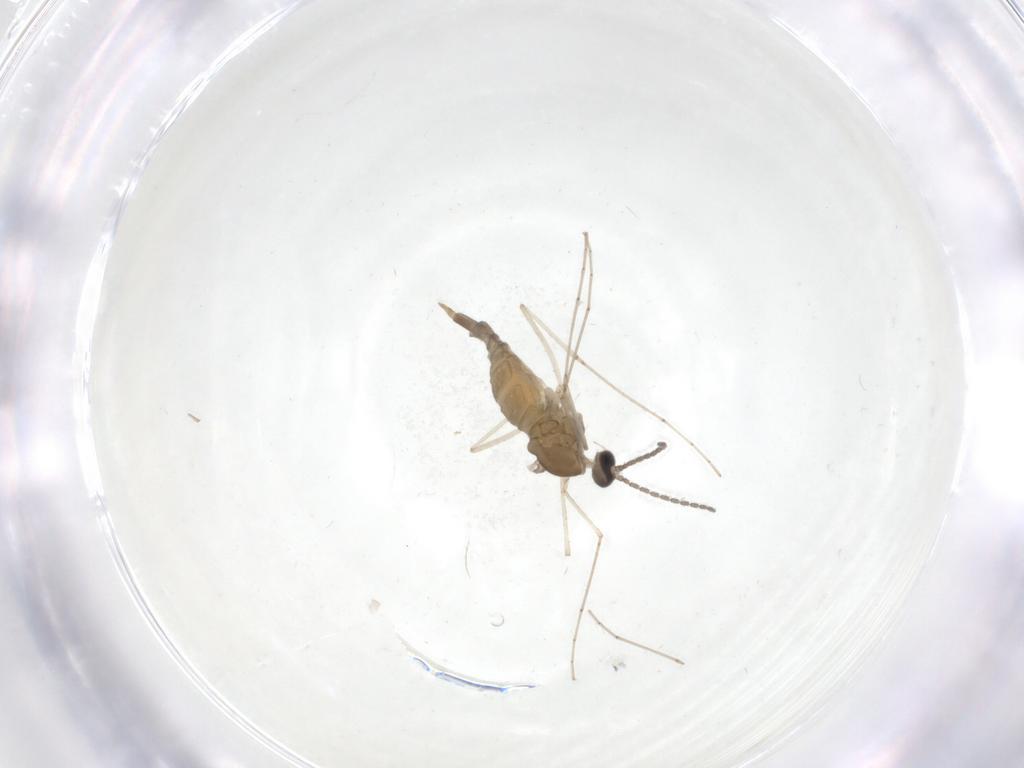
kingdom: Animalia
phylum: Arthropoda
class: Insecta
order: Diptera
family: Cecidomyiidae
